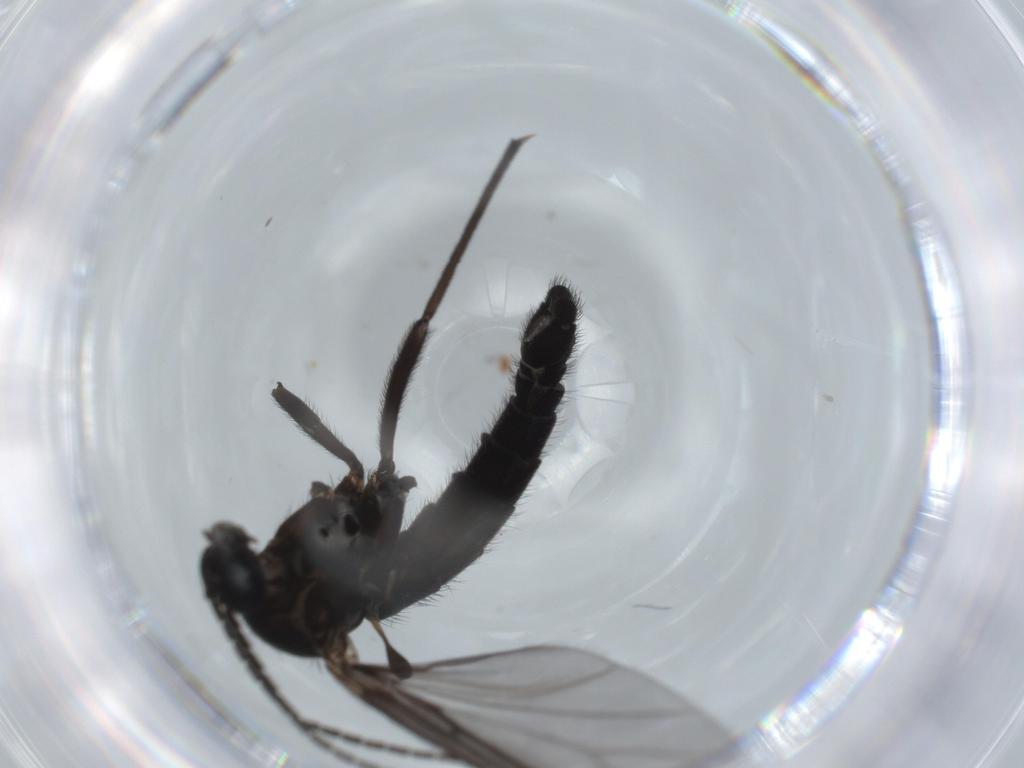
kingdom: Animalia
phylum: Arthropoda
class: Insecta
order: Diptera
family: Sciaridae
